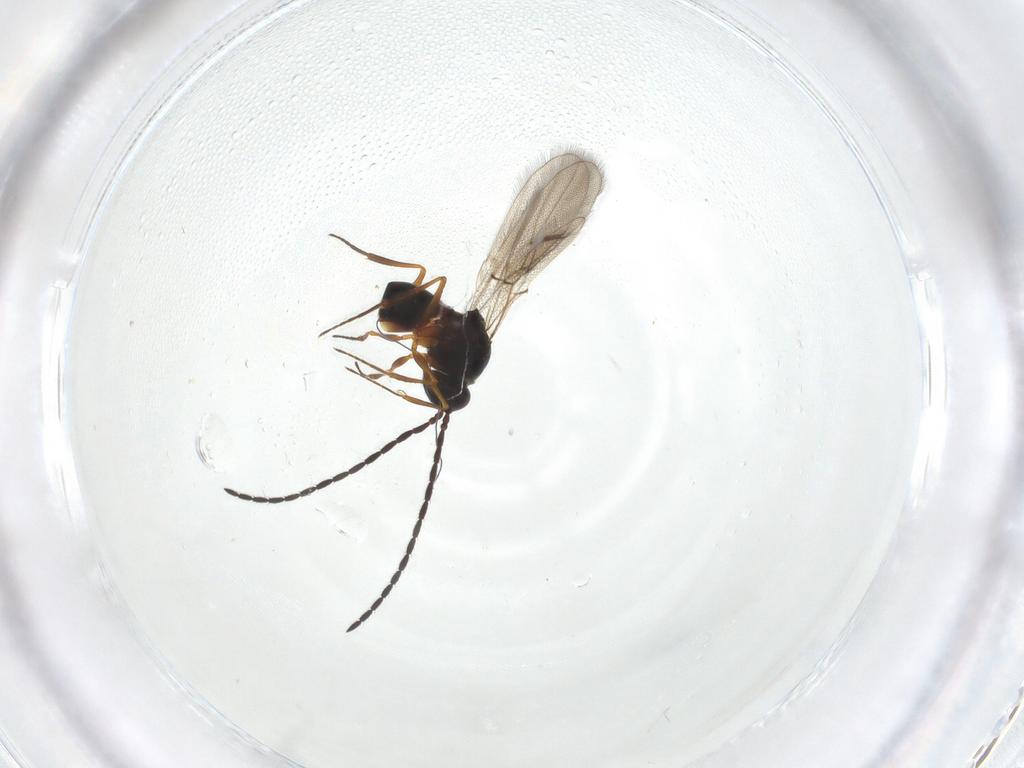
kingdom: Animalia
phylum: Arthropoda
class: Insecta
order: Hymenoptera
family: Figitidae
